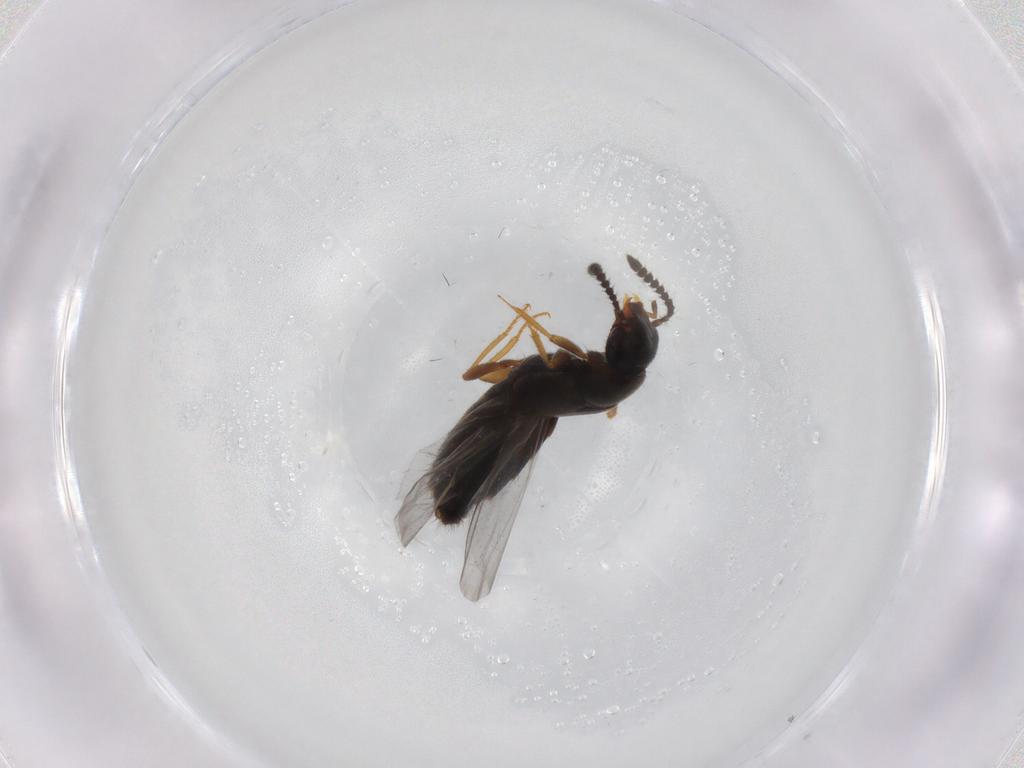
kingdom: Animalia
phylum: Arthropoda
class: Insecta
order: Coleoptera
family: Staphylinidae
